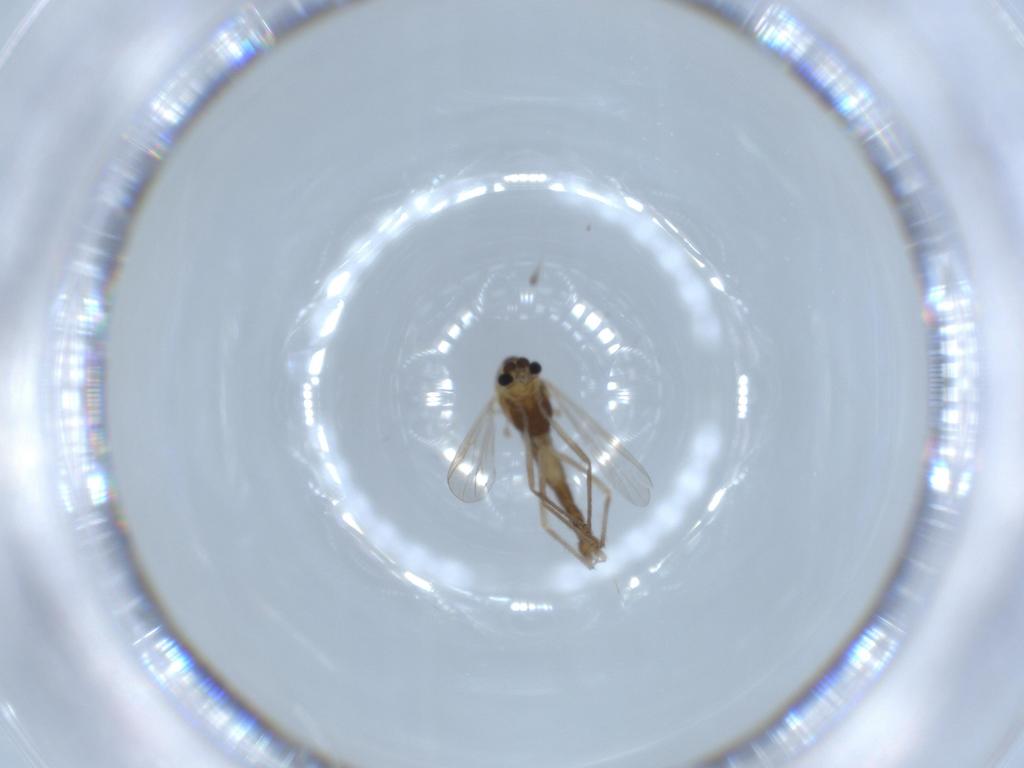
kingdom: Animalia
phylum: Arthropoda
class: Insecta
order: Diptera
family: Chironomidae
